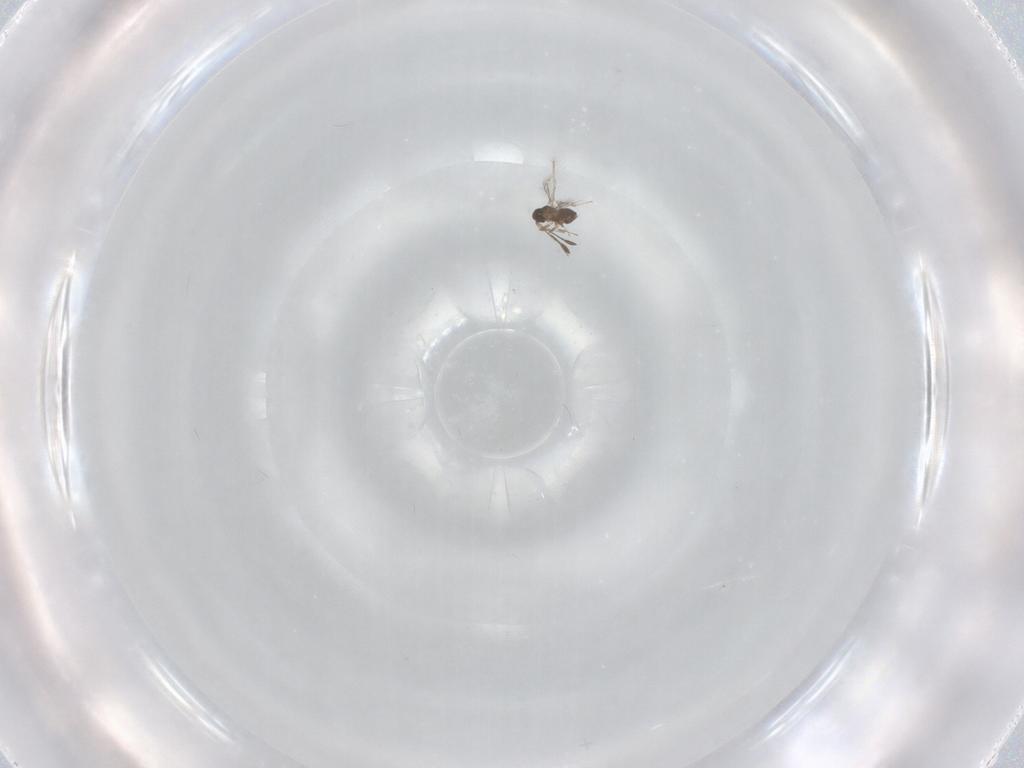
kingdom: Animalia
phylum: Arthropoda
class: Insecta
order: Hymenoptera
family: Mymaridae
